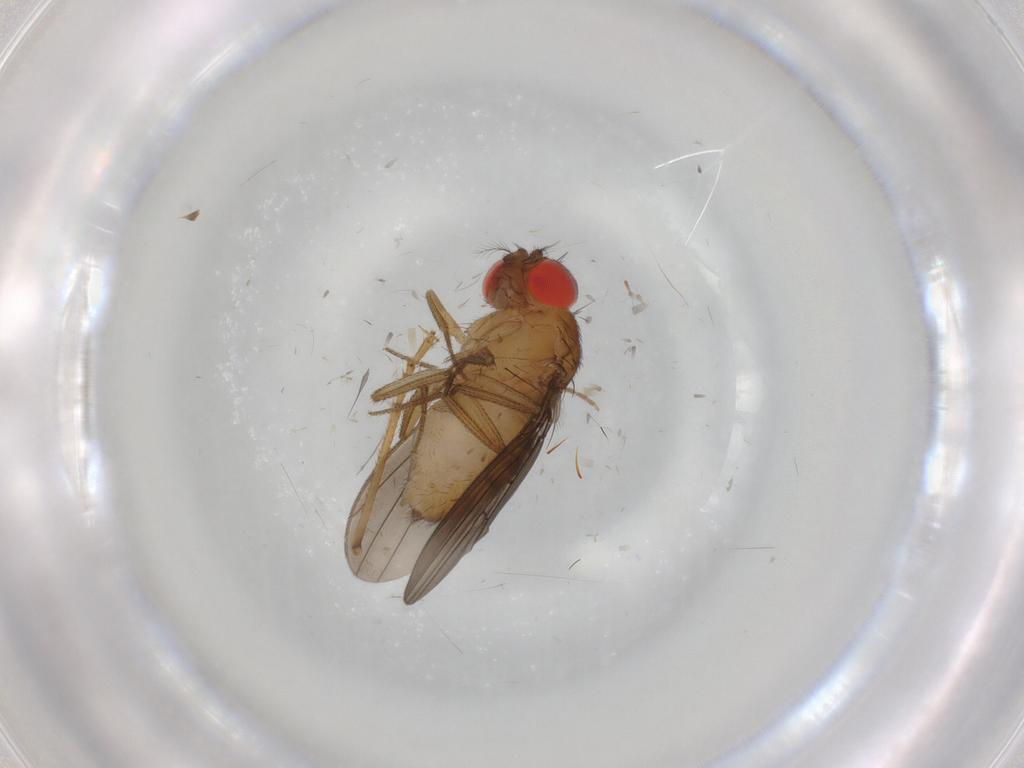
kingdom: Animalia
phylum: Arthropoda
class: Insecta
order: Diptera
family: Drosophilidae
